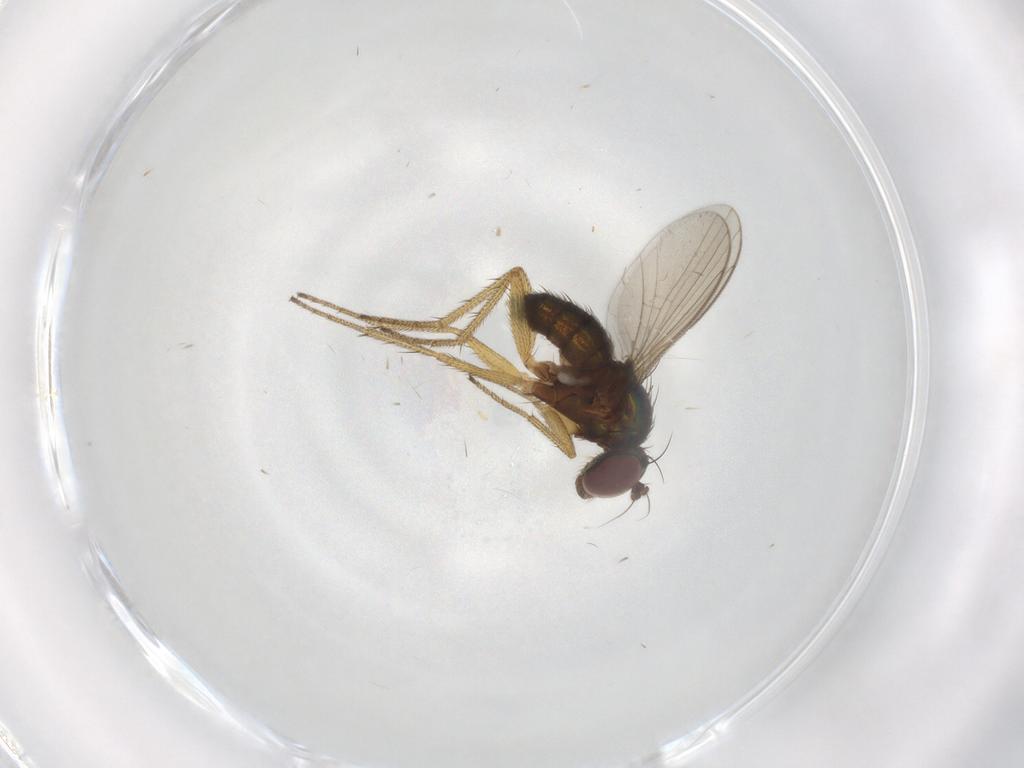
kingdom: Animalia
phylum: Arthropoda
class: Insecta
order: Diptera
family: Dolichopodidae
